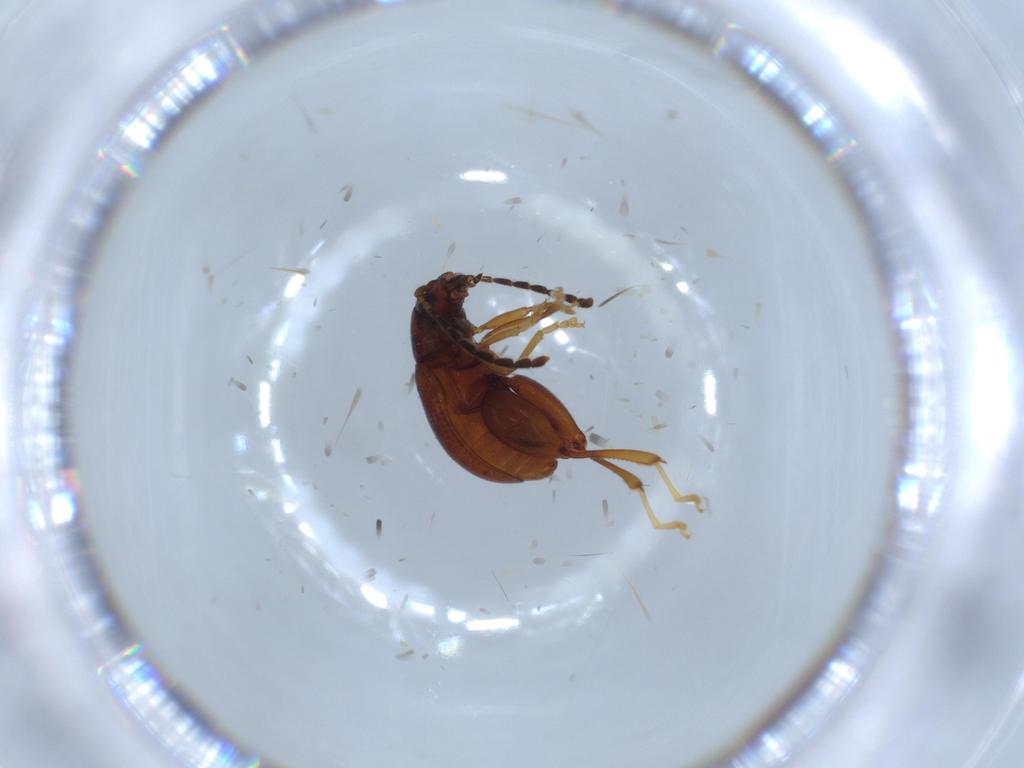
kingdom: Animalia
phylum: Arthropoda
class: Insecta
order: Coleoptera
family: Chrysomelidae
